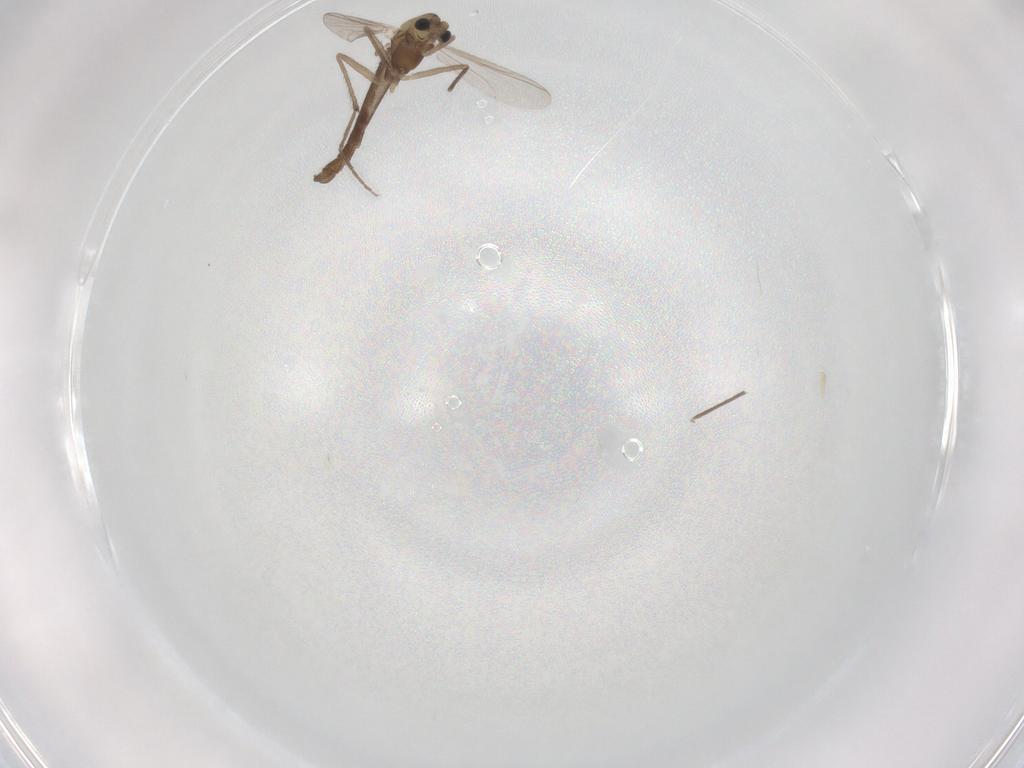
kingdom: Animalia
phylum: Arthropoda
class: Insecta
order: Diptera
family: Chironomidae
